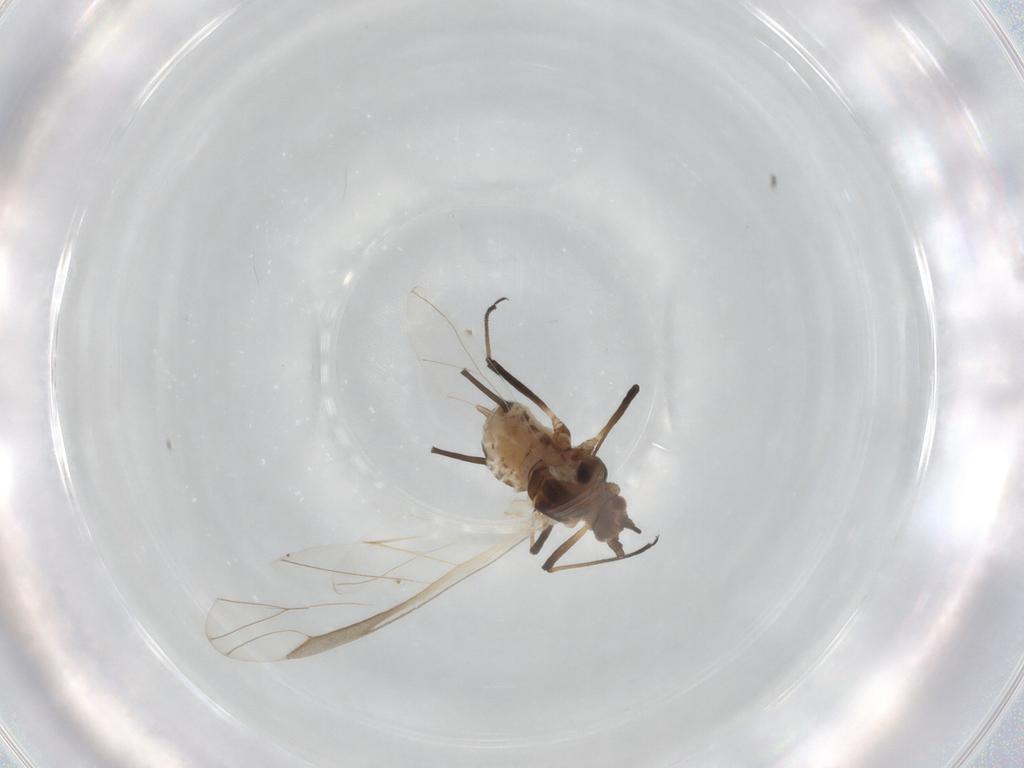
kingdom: Animalia
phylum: Arthropoda
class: Insecta
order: Hemiptera
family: Aphididae
